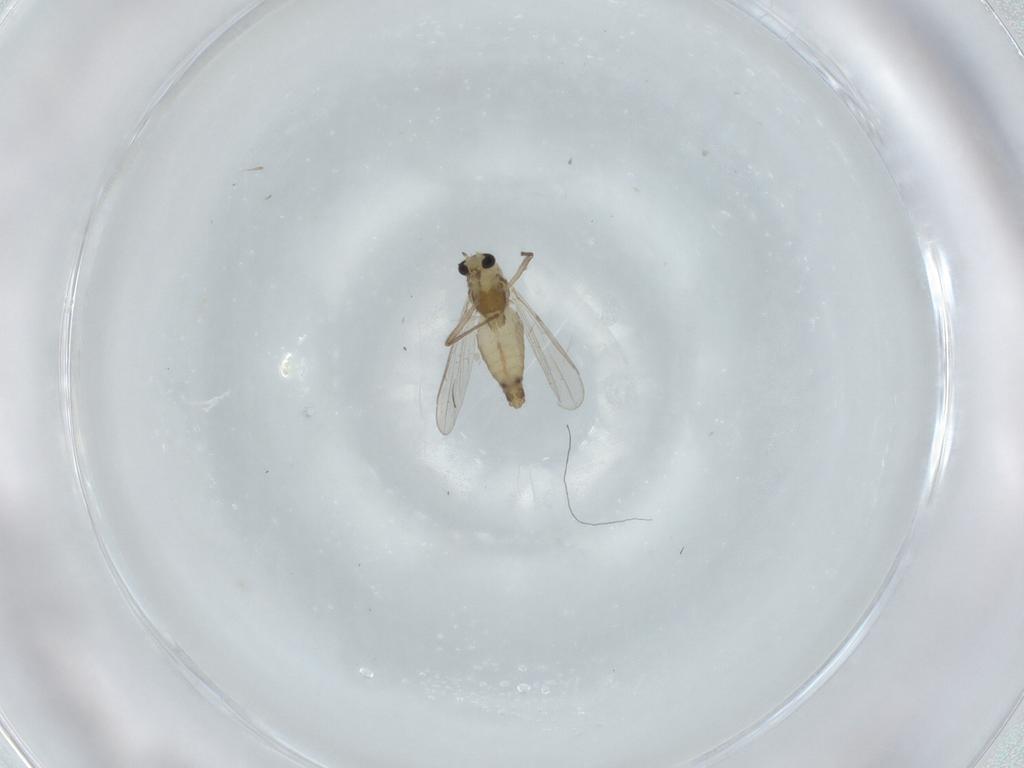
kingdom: Animalia
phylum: Arthropoda
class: Insecta
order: Diptera
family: Chironomidae
